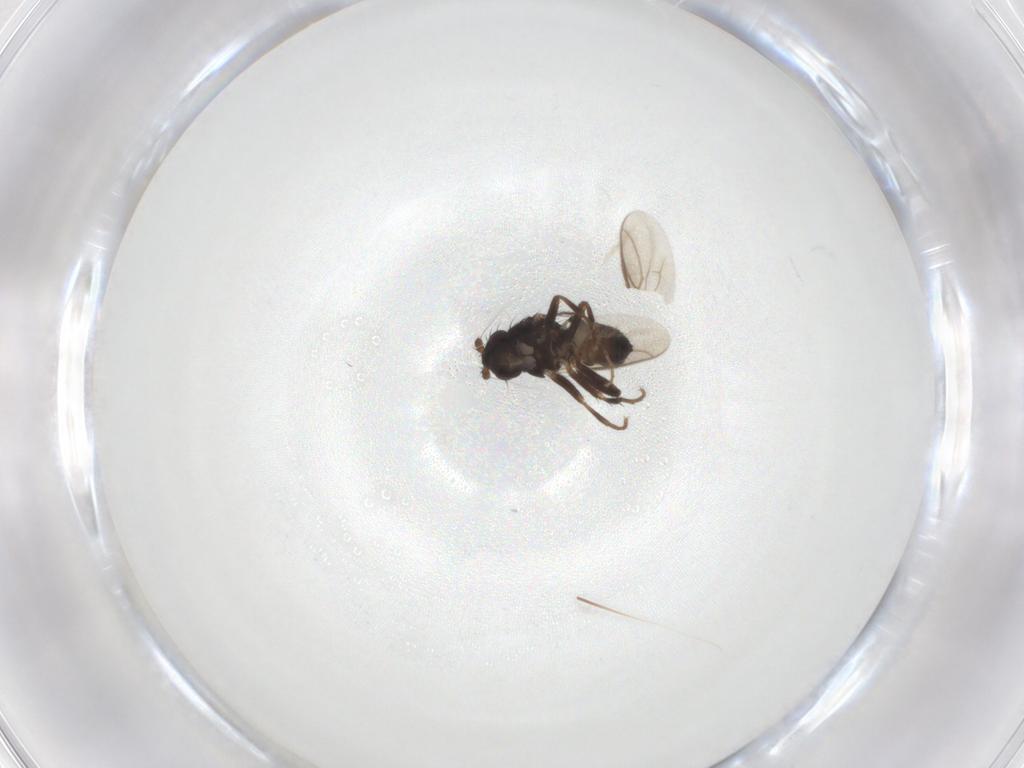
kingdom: Animalia
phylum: Arthropoda
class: Insecta
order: Diptera
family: Sphaeroceridae
